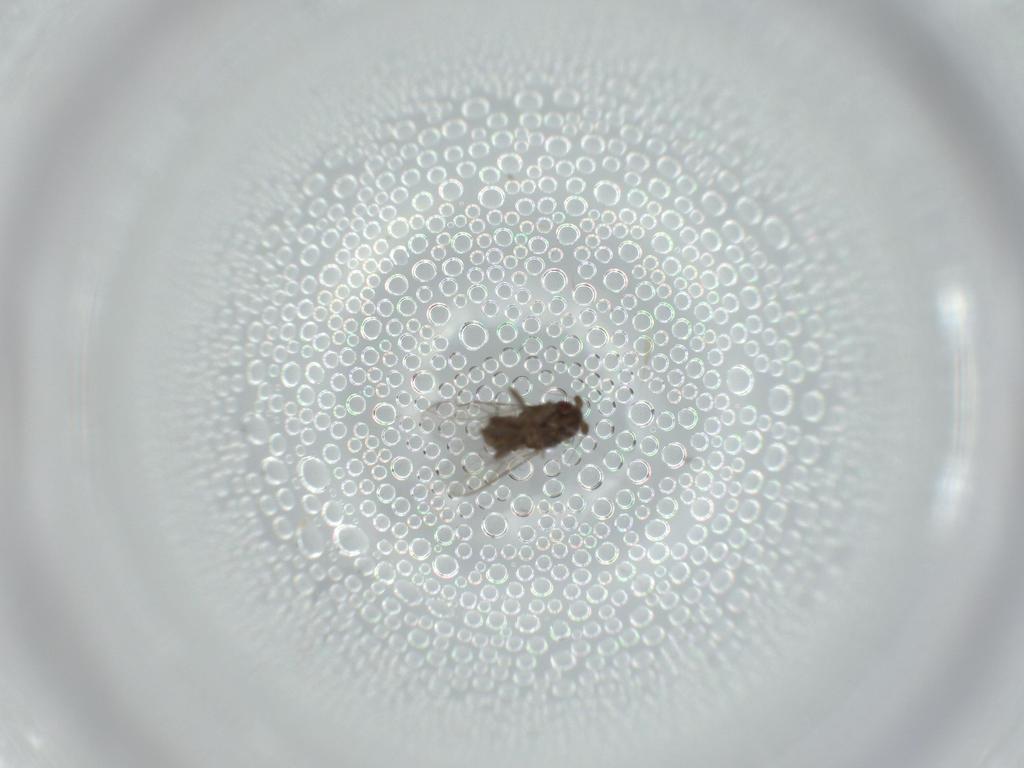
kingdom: Animalia
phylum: Arthropoda
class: Insecta
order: Diptera
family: Sphaeroceridae
